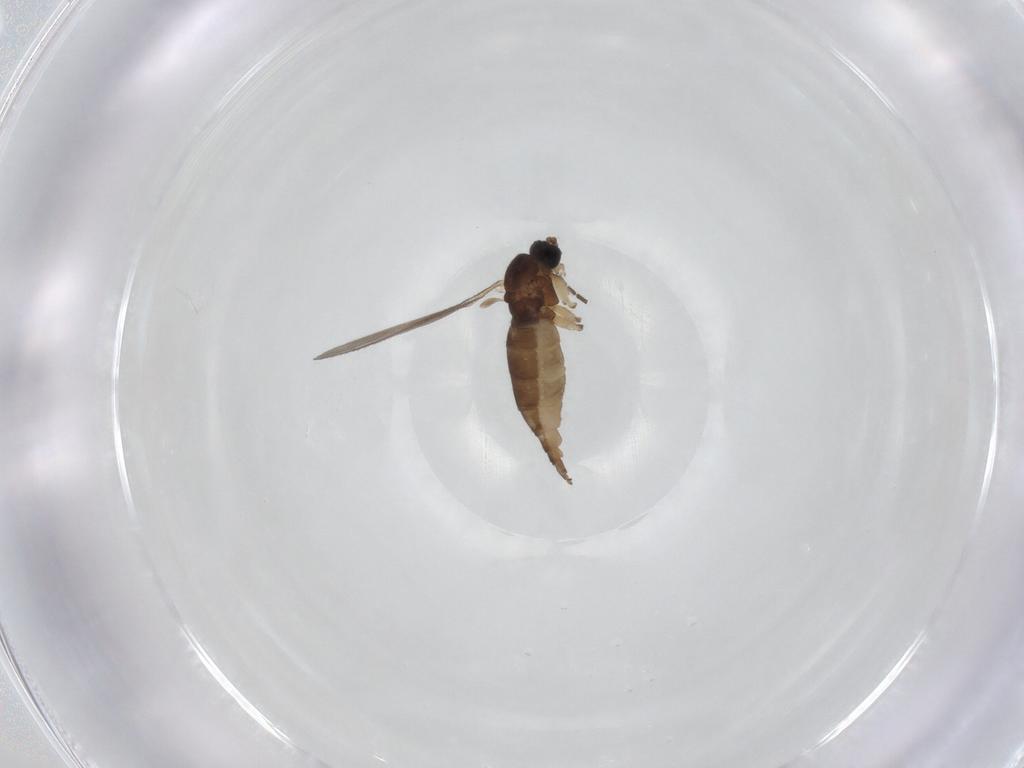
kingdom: Animalia
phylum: Arthropoda
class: Insecta
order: Diptera
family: Sciaridae
